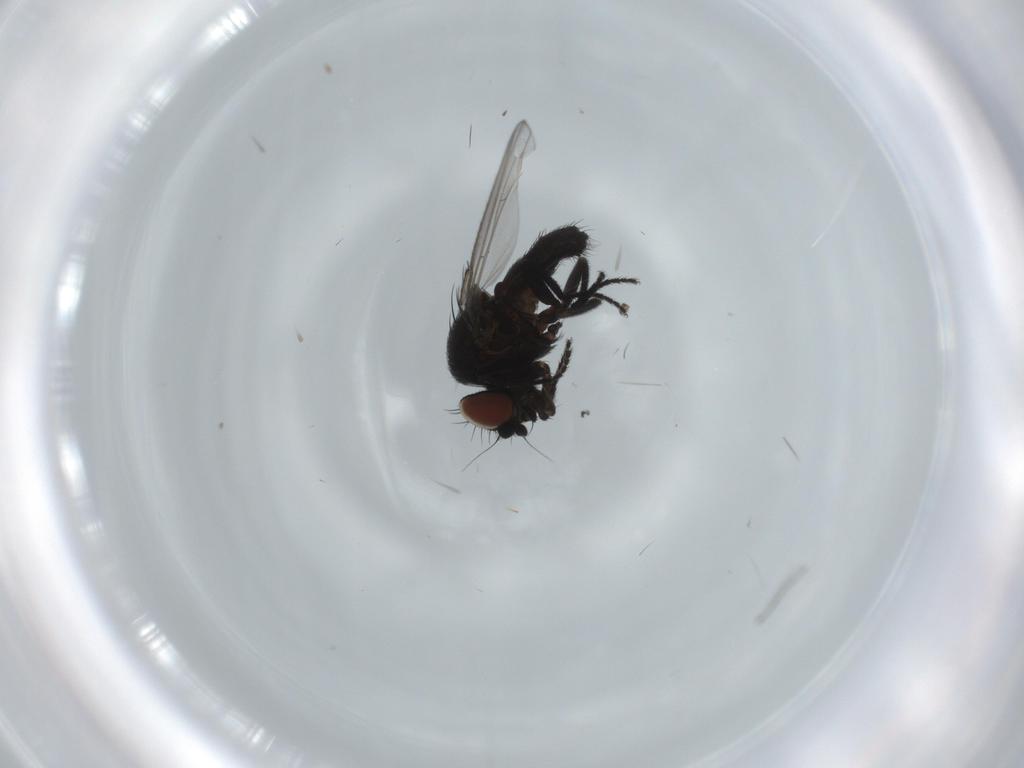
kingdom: Animalia
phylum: Arthropoda
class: Insecta
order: Diptera
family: Milichiidae
